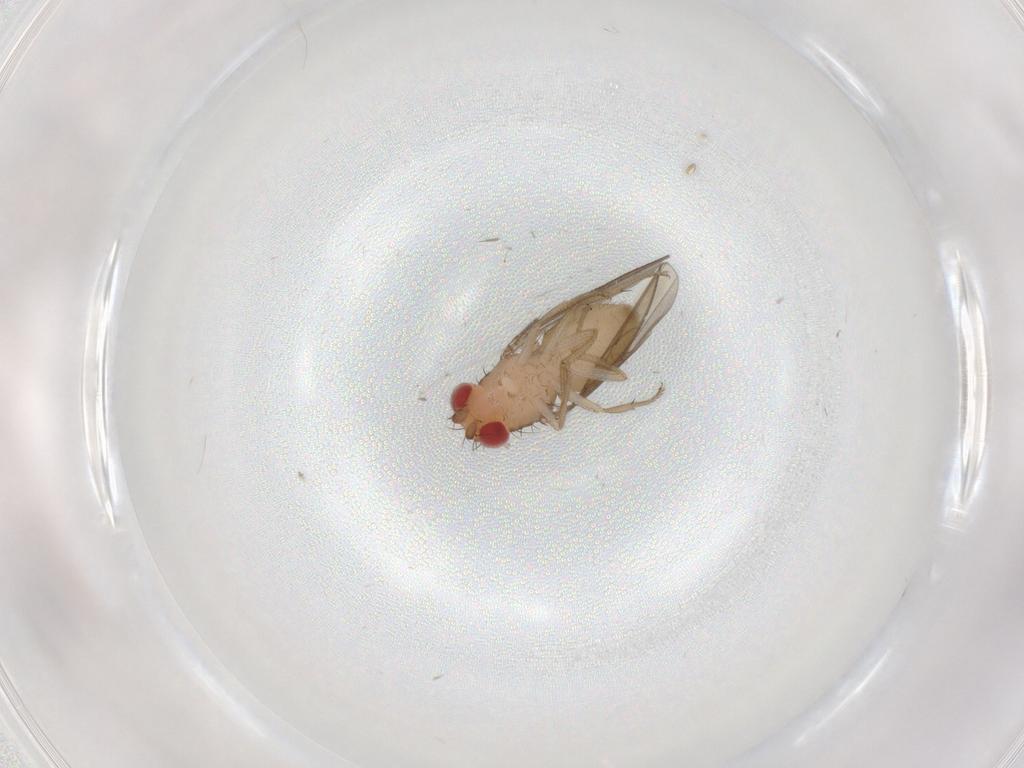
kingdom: Animalia
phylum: Arthropoda
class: Insecta
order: Diptera
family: Drosophilidae
